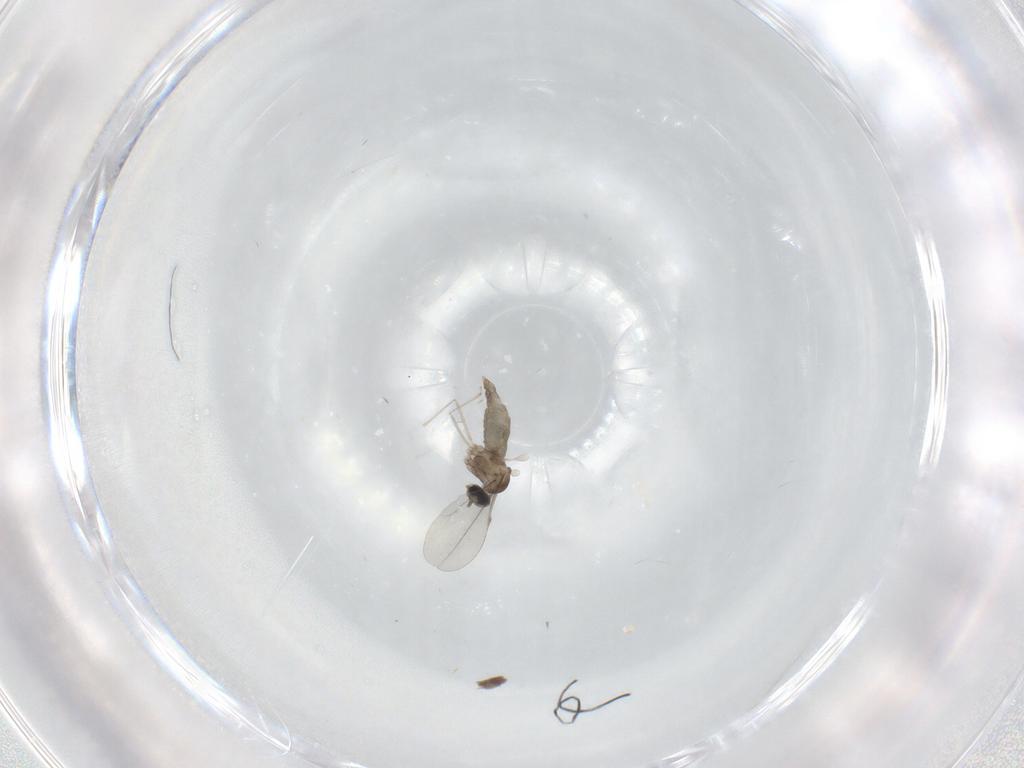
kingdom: Animalia
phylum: Arthropoda
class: Insecta
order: Diptera
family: Cecidomyiidae
